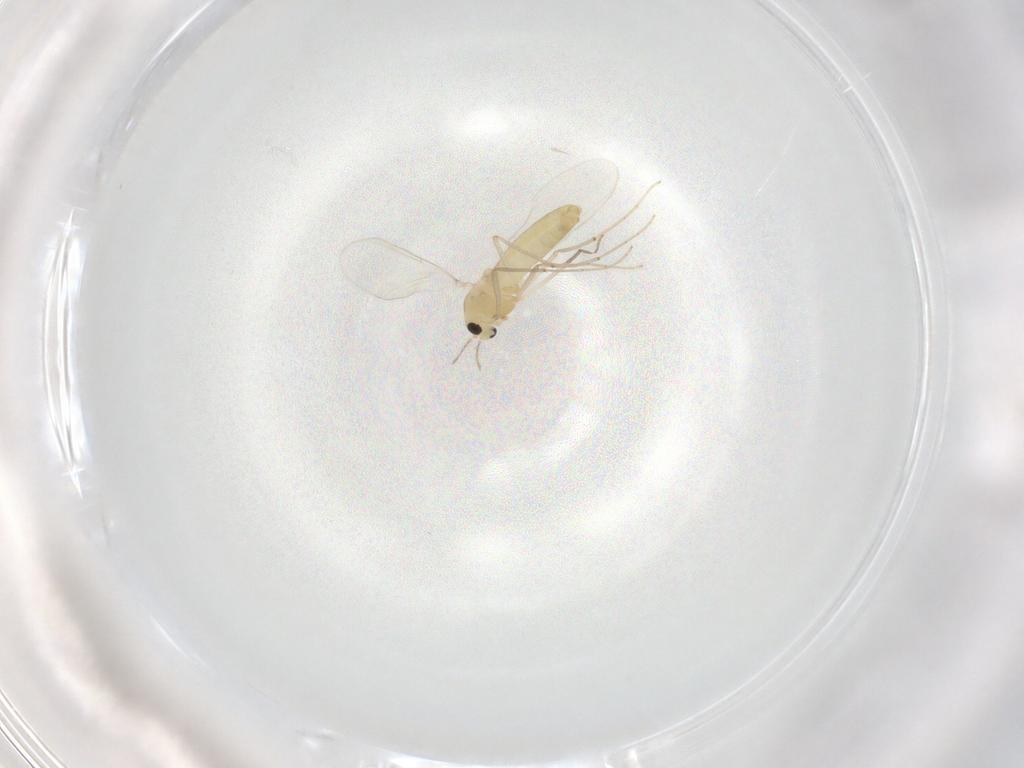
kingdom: Animalia
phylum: Arthropoda
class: Insecta
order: Diptera
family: Chironomidae
